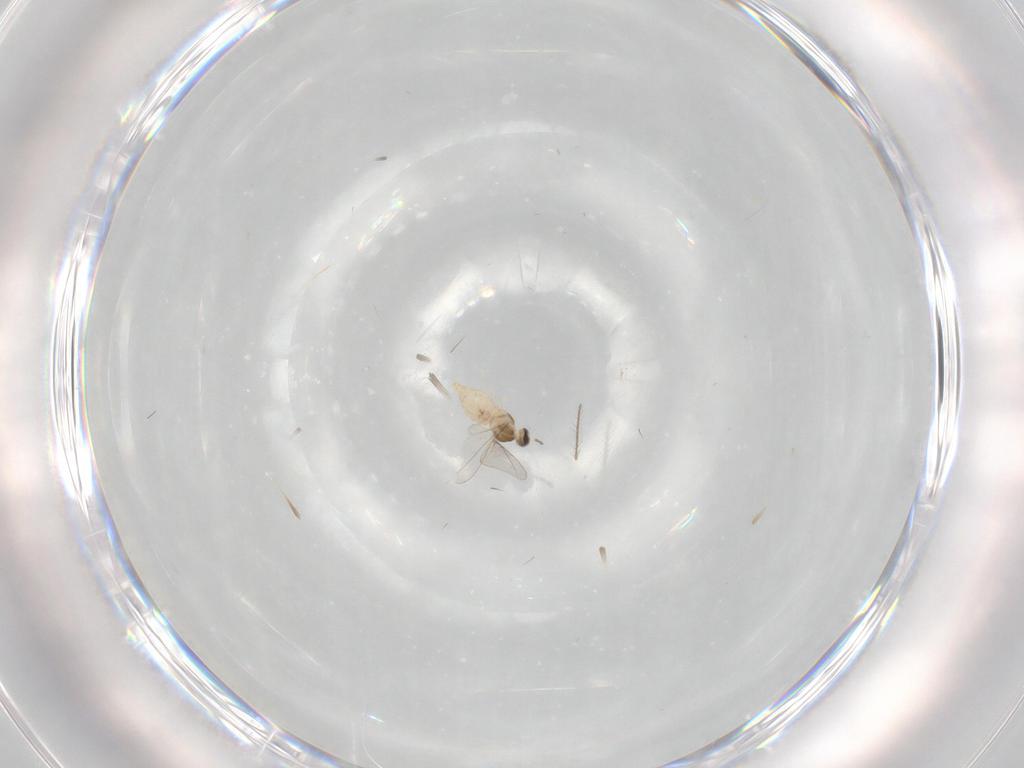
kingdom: Animalia
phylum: Arthropoda
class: Insecta
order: Diptera
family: Cecidomyiidae
